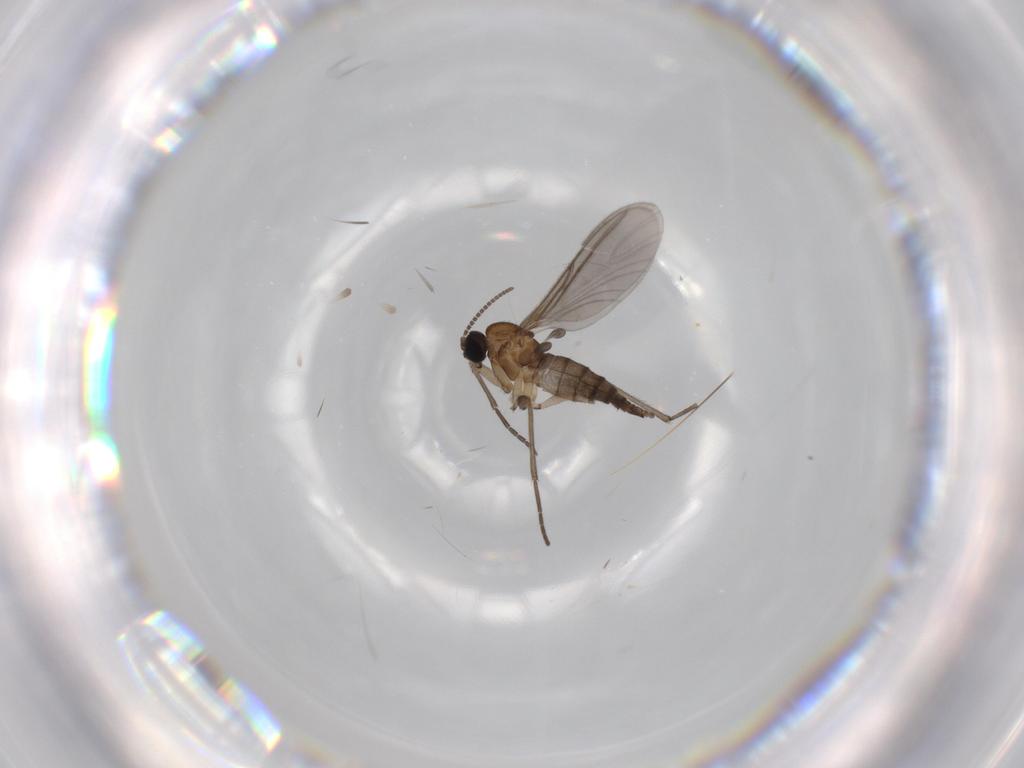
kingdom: Animalia
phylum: Arthropoda
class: Insecta
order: Diptera
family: Sciaridae
